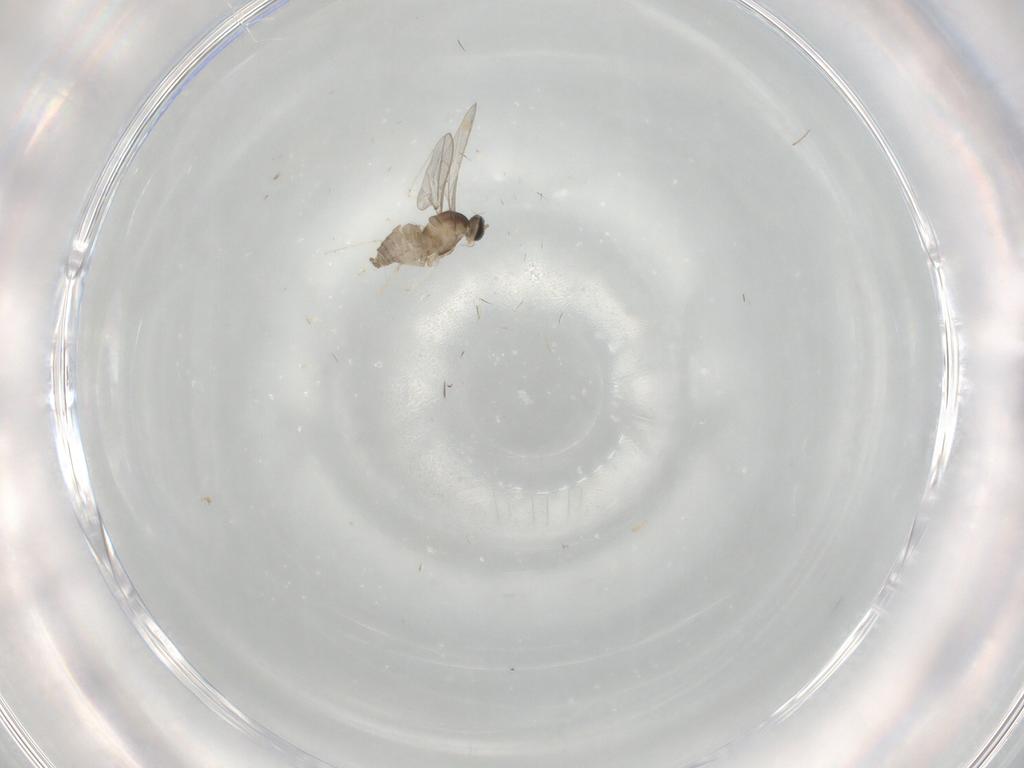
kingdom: Animalia
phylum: Arthropoda
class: Insecta
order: Diptera
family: Cecidomyiidae
